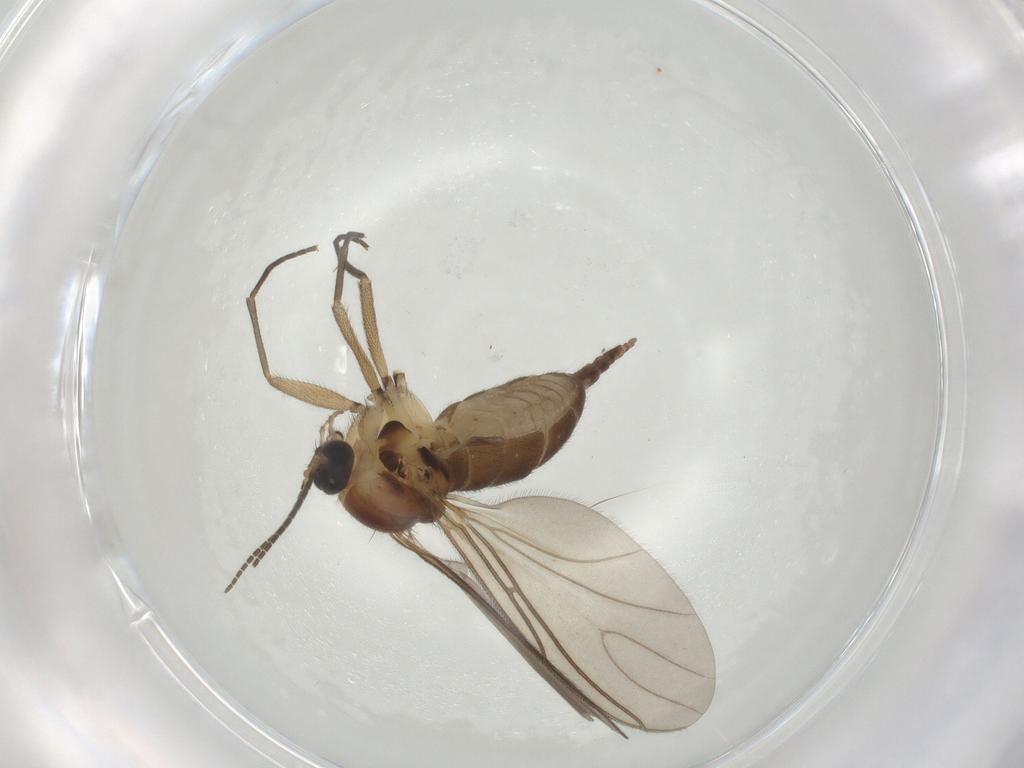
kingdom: Animalia
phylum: Arthropoda
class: Insecta
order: Diptera
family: Sciaridae
